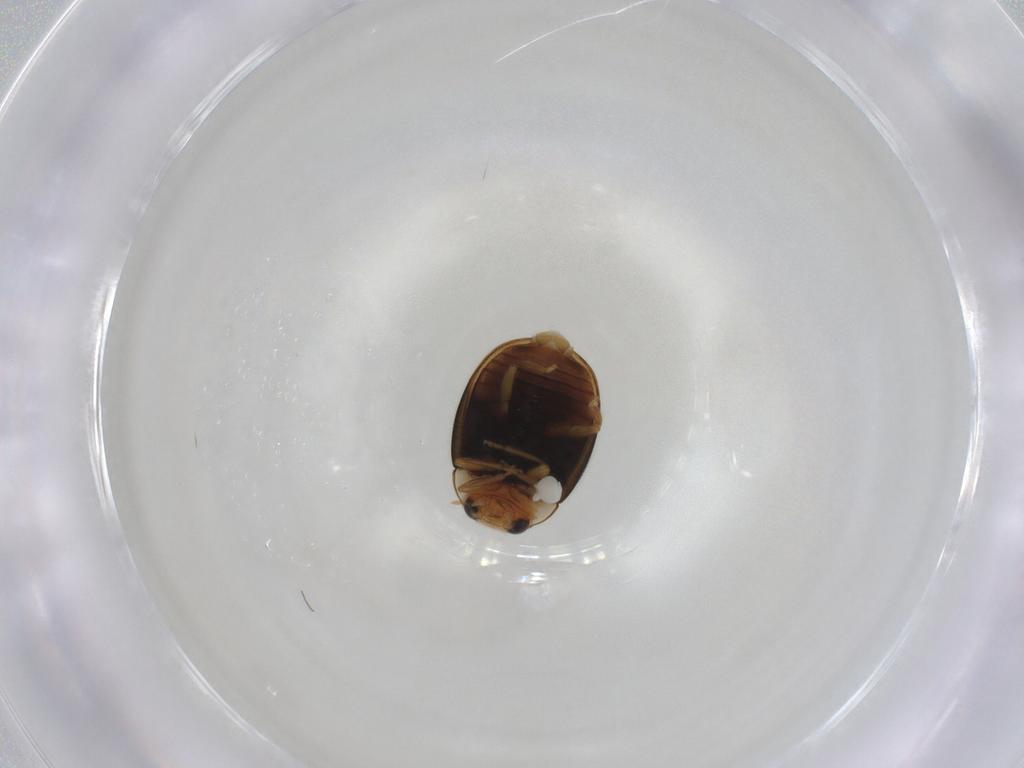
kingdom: Animalia
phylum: Arthropoda
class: Insecta
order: Coleoptera
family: Coccinellidae
